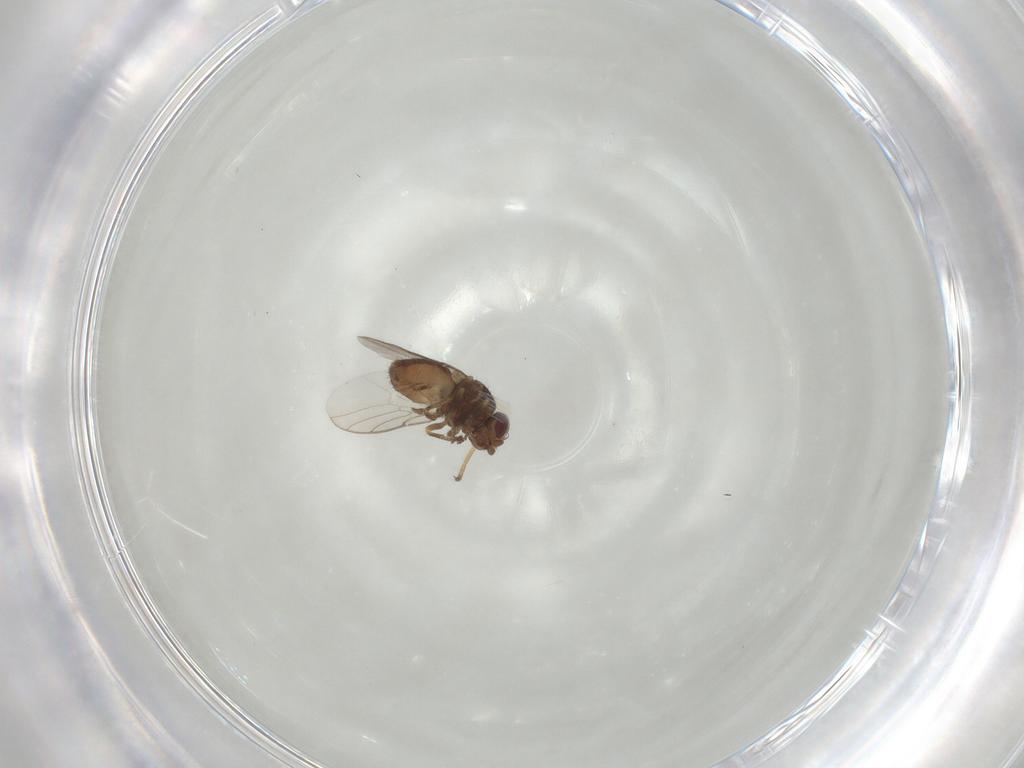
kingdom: Animalia
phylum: Arthropoda
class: Insecta
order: Diptera
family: Chloropidae
